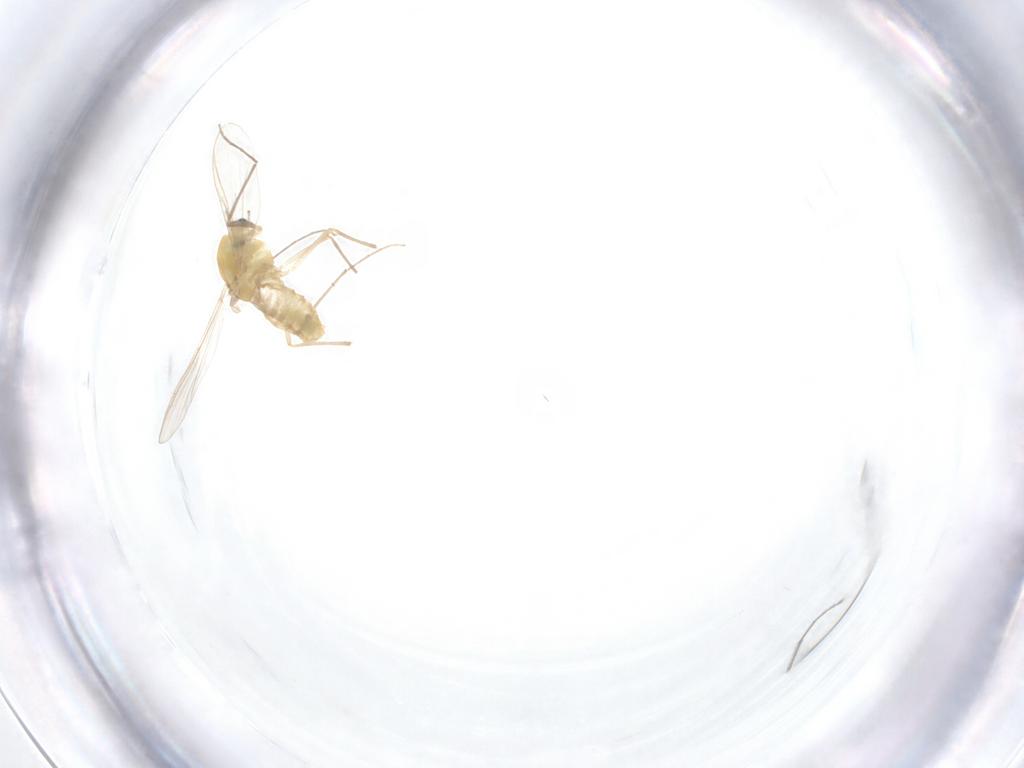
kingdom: Animalia
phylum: Arthropoda
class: Insecta
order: Diptera
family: Chironomidae
